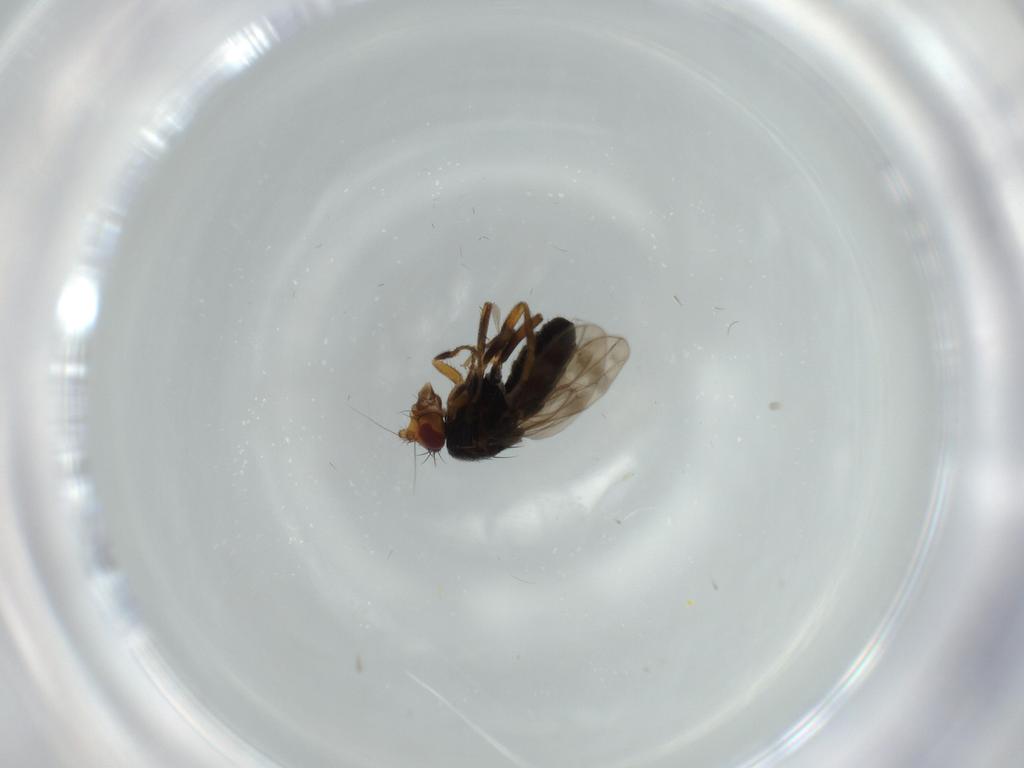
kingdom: Animalia
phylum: Arthropoda
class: Insecta
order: Diptera
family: Sphaeroceridae
